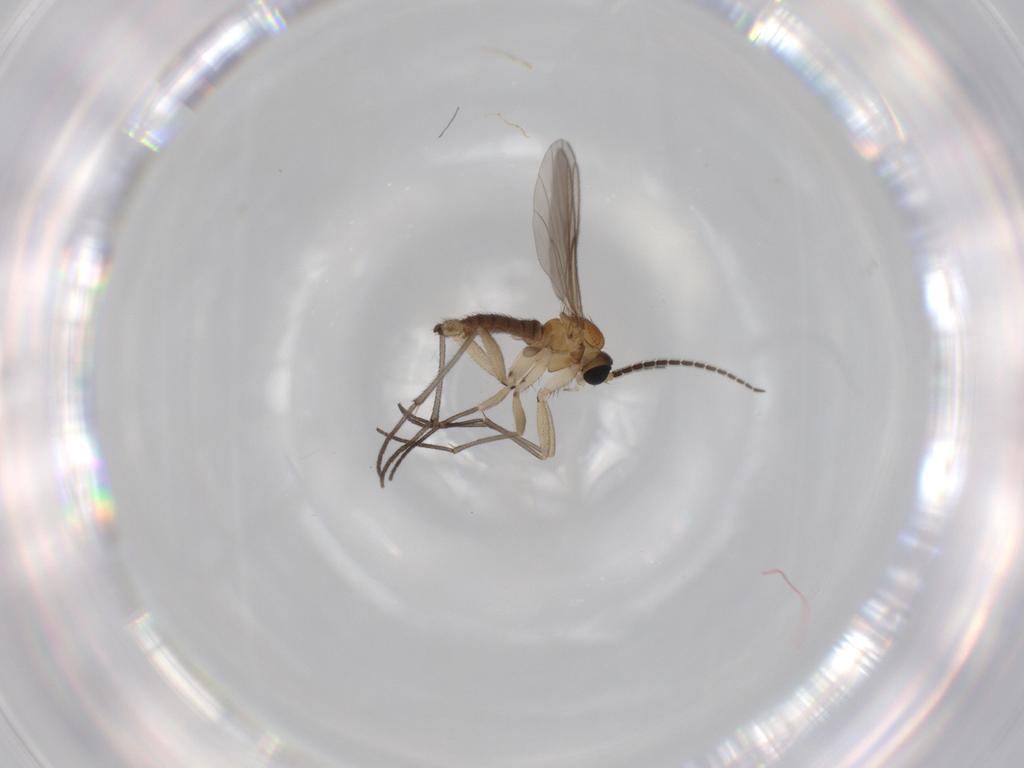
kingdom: Animalia
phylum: Arthropoda
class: Insecta
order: Diptera
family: Sciaridae
